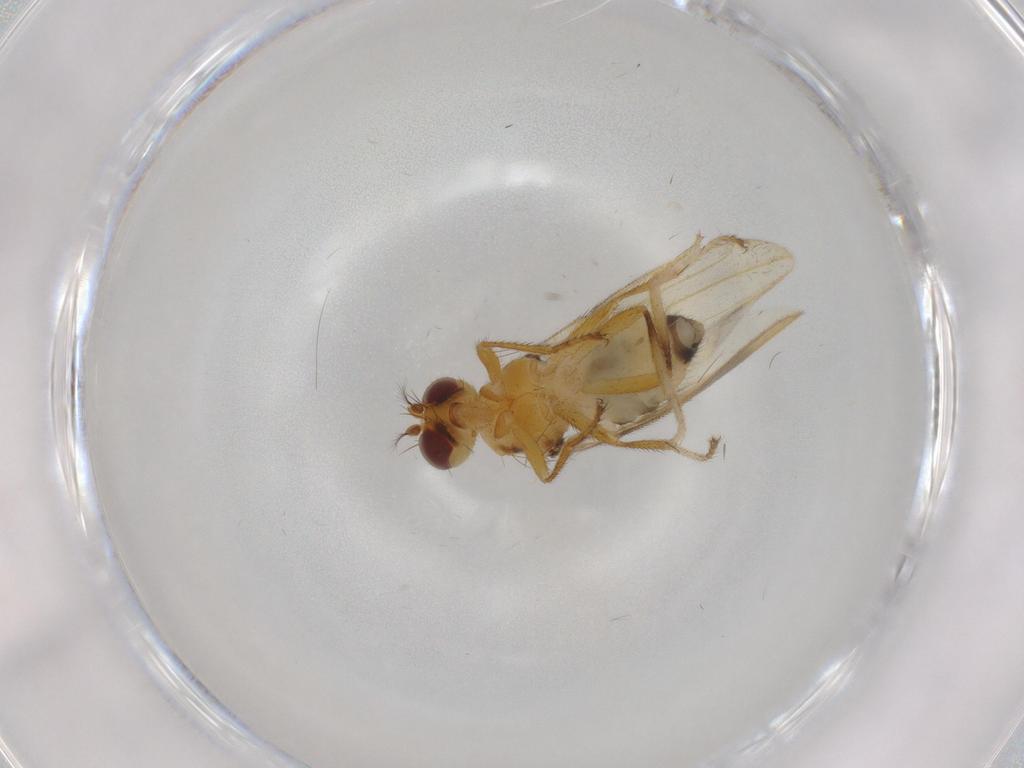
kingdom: Animalia
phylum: Arthropoda
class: Insecta
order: Diptera
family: Periscelididae
